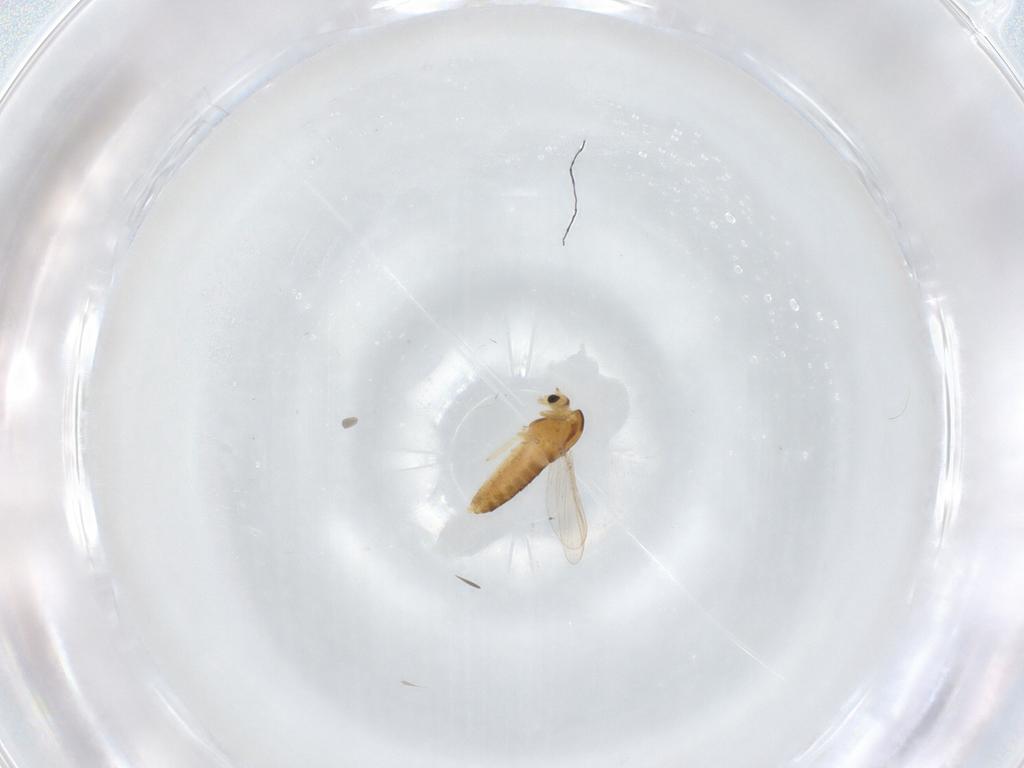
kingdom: Animalia
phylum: Arthropoda
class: Insecta
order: Diptera
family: Chironomidae
